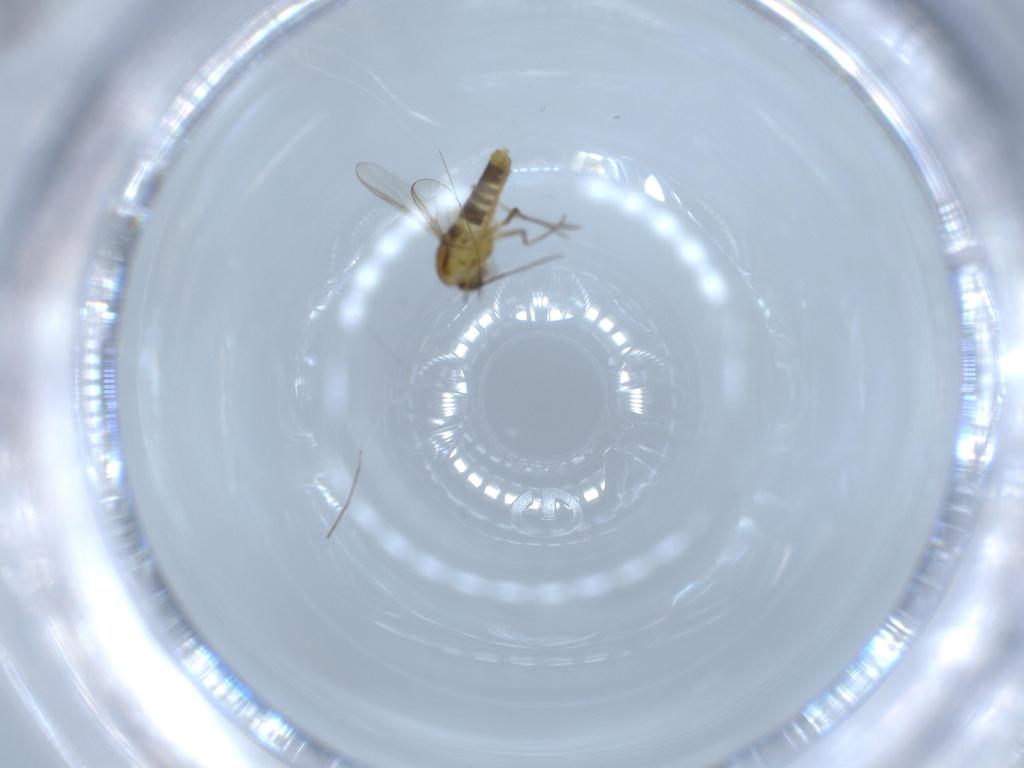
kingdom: Animalia
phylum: Arthropoda
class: Insecta
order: Diptera
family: Chironomidae
